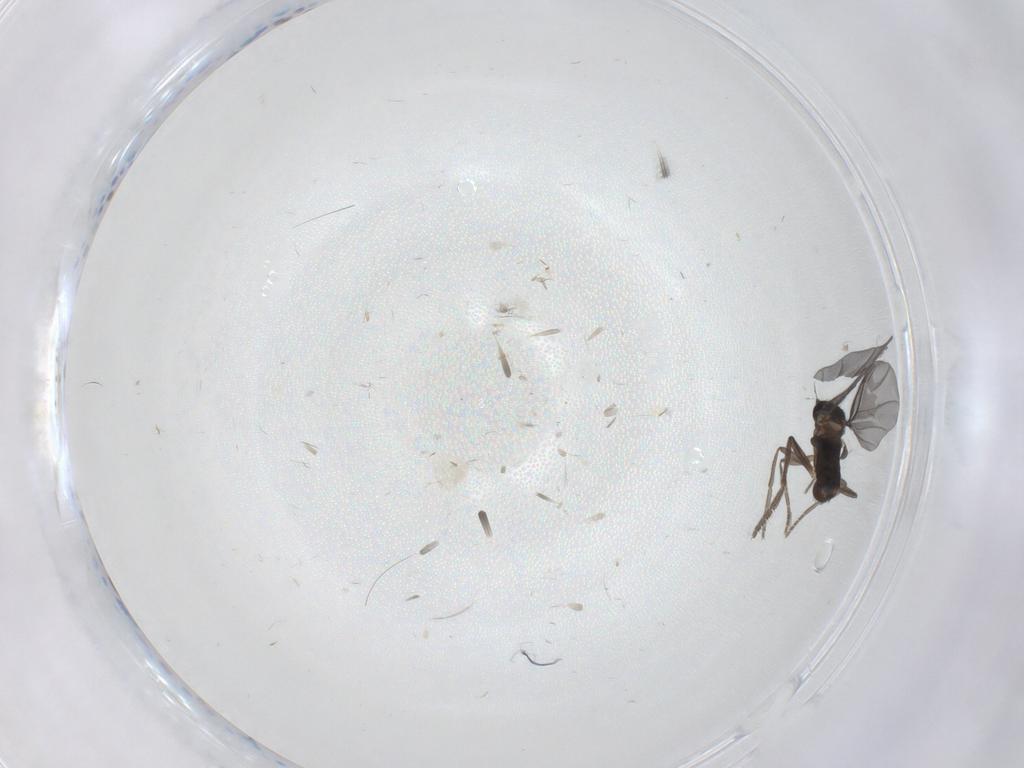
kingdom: Animalia
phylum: Arthropoda
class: Insecta
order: Diptera
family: Phoridae
